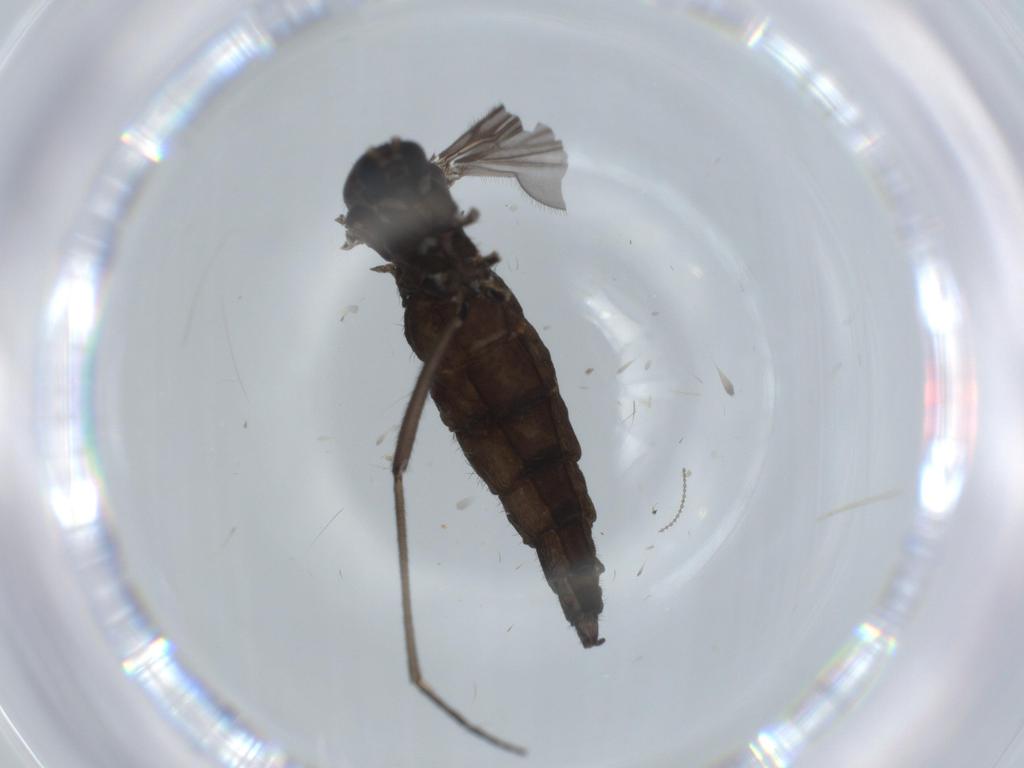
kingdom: Animalia
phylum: Arthropoda
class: Insecta
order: Diptera
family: Sciaridae
